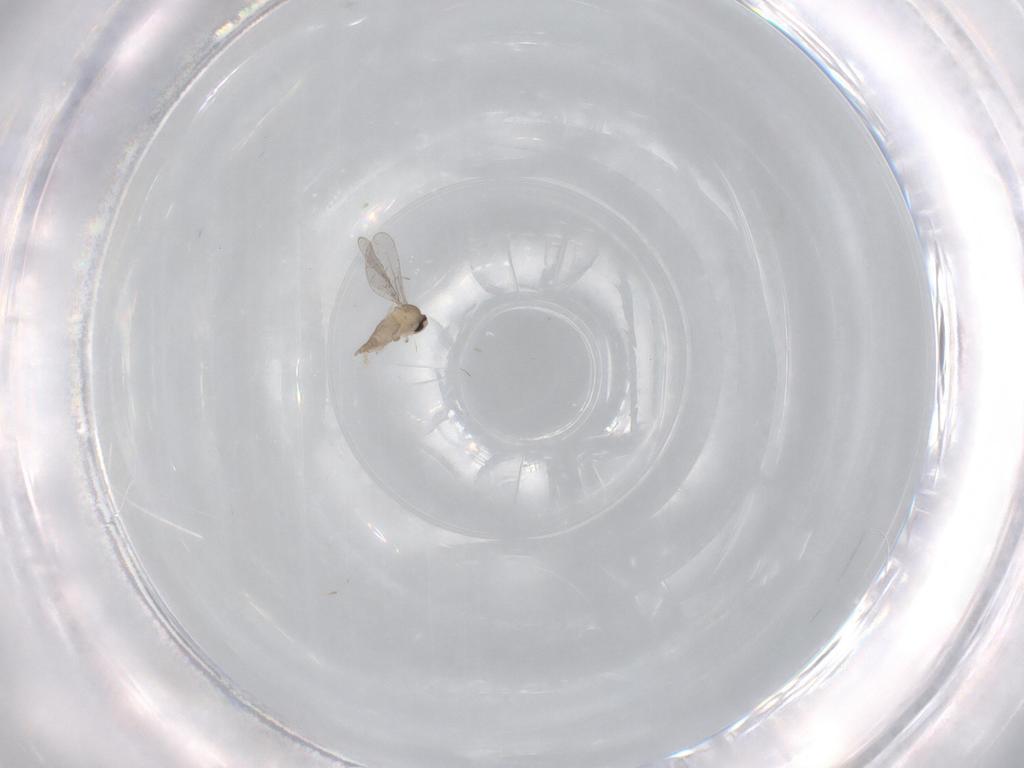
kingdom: Animalia
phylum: Arthropoda
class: Insecta
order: Diptera
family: Cecidomyiidae
